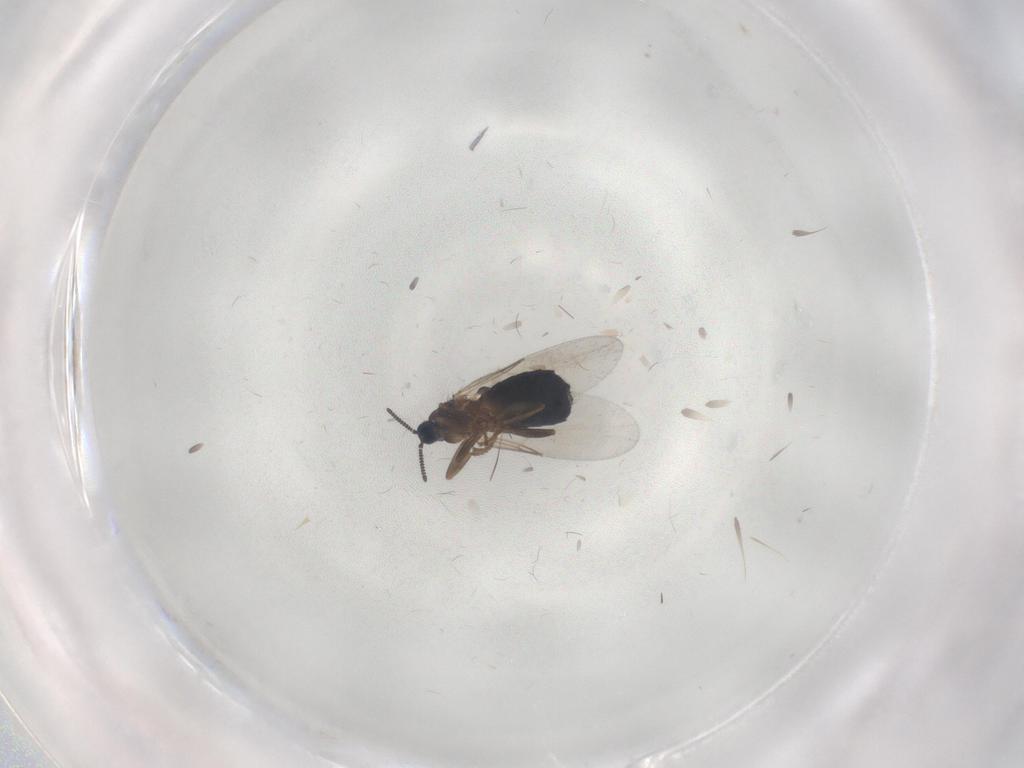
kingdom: Animalia
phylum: Arthropoda
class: Insecta
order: Diptera
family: Scatopsidae
